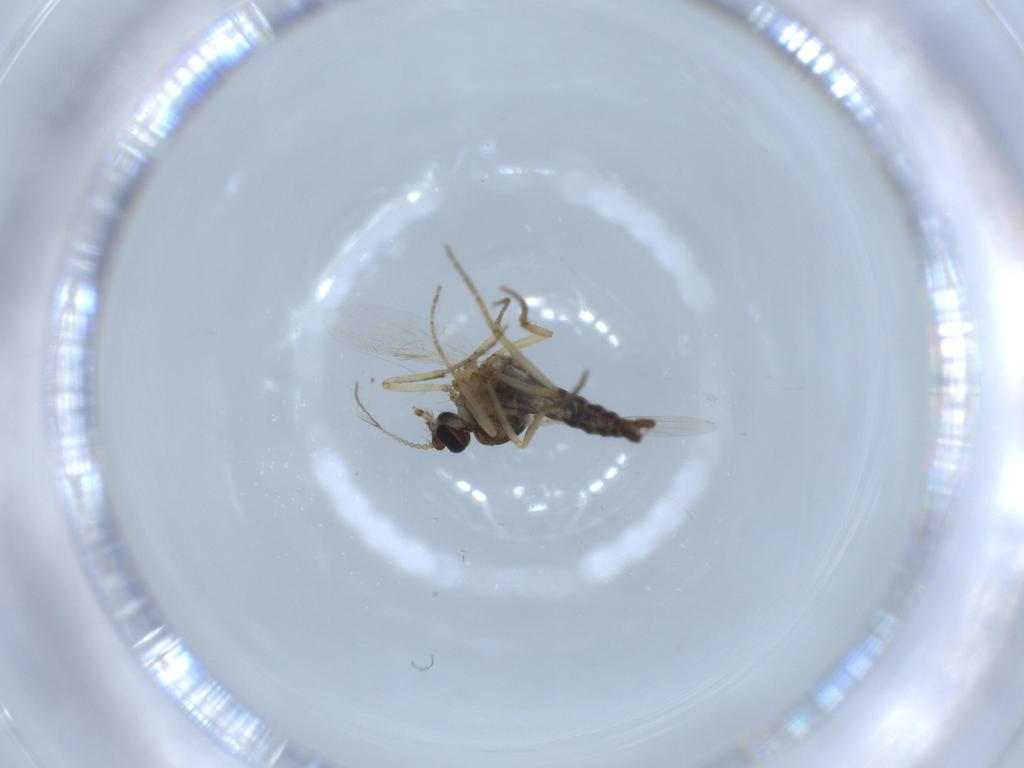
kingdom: Animalia
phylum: Arthropoda
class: Insecta
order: Diptera
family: Ceratopogonidae
